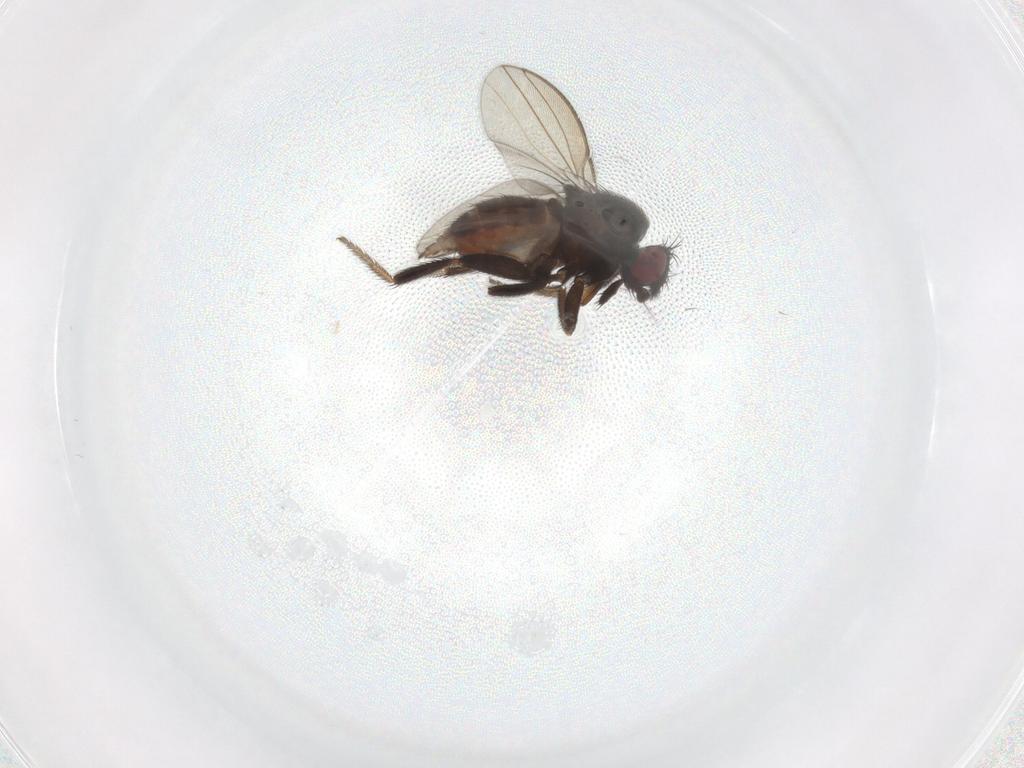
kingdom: Animalia
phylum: Arthropoda
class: Insecta
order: Diptera
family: Milichiidae
